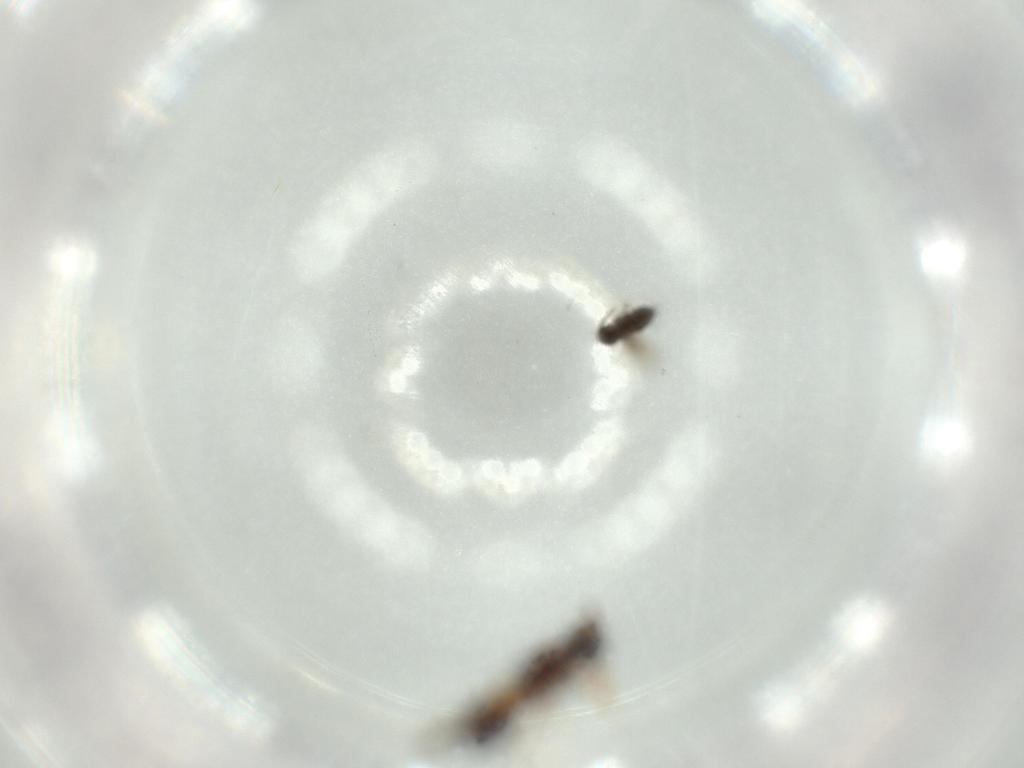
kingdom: Animalia
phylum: Arthropoda
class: Insecta
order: Hymenoptera
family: Signiphoridae
